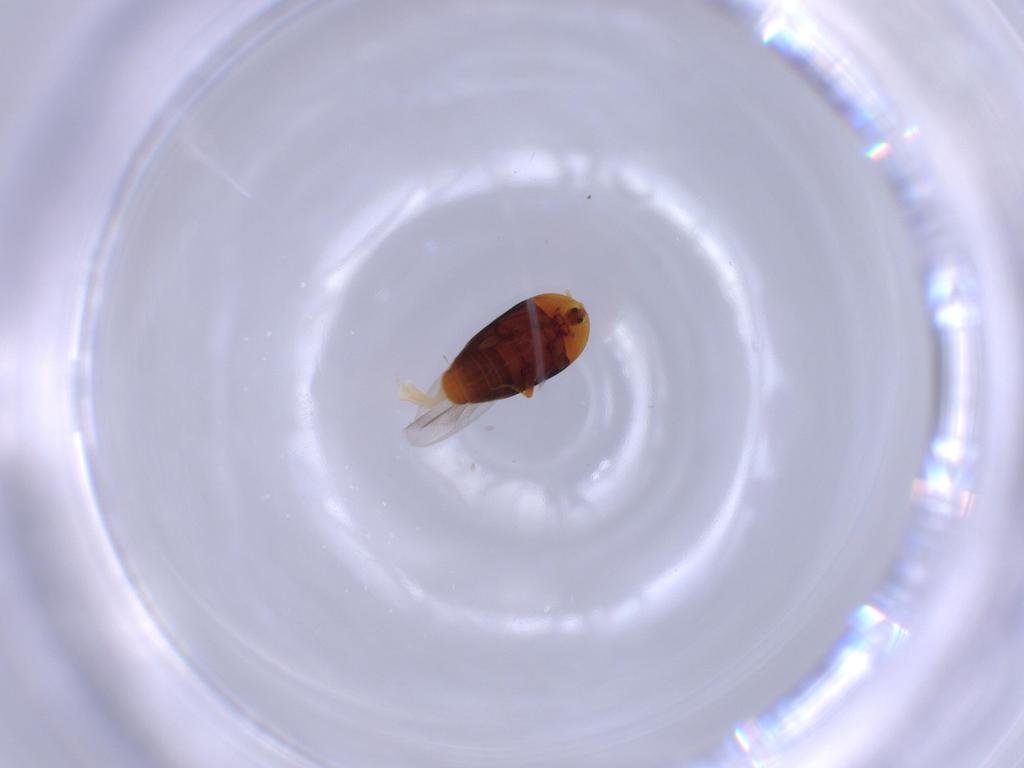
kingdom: Animalia
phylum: Arthropoda
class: Insecta
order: Coleoptera
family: Corylophidae
